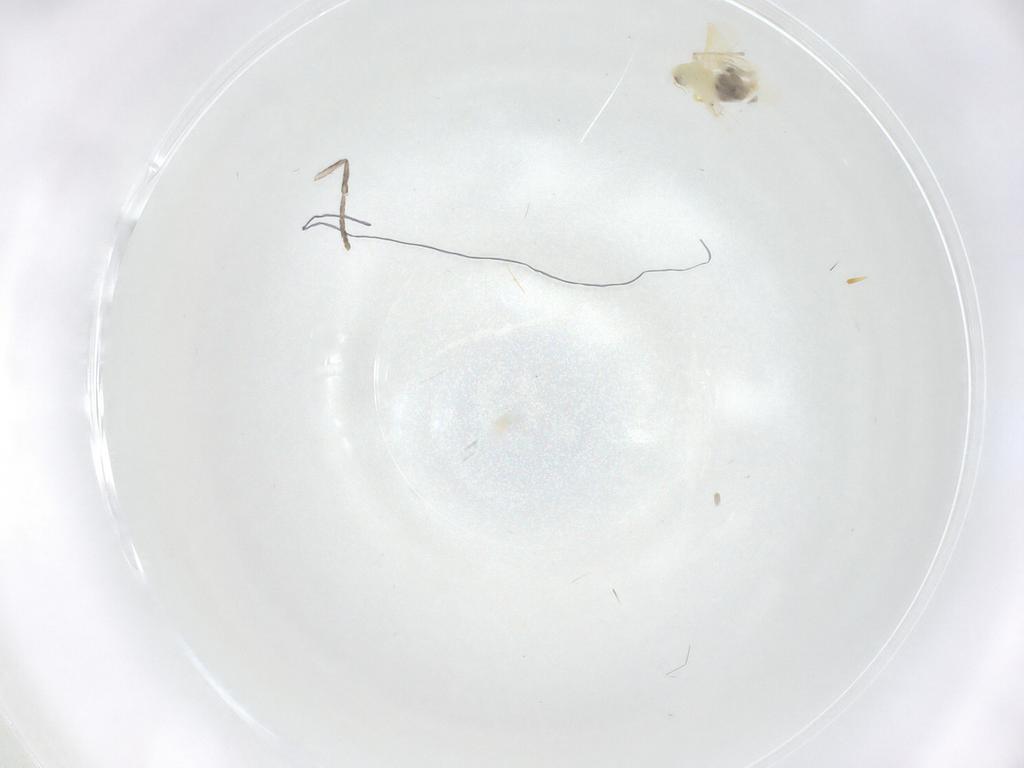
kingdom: Animalia
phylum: Arthropoda
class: Insecta
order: Hemiptera
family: Aleyrodidae
